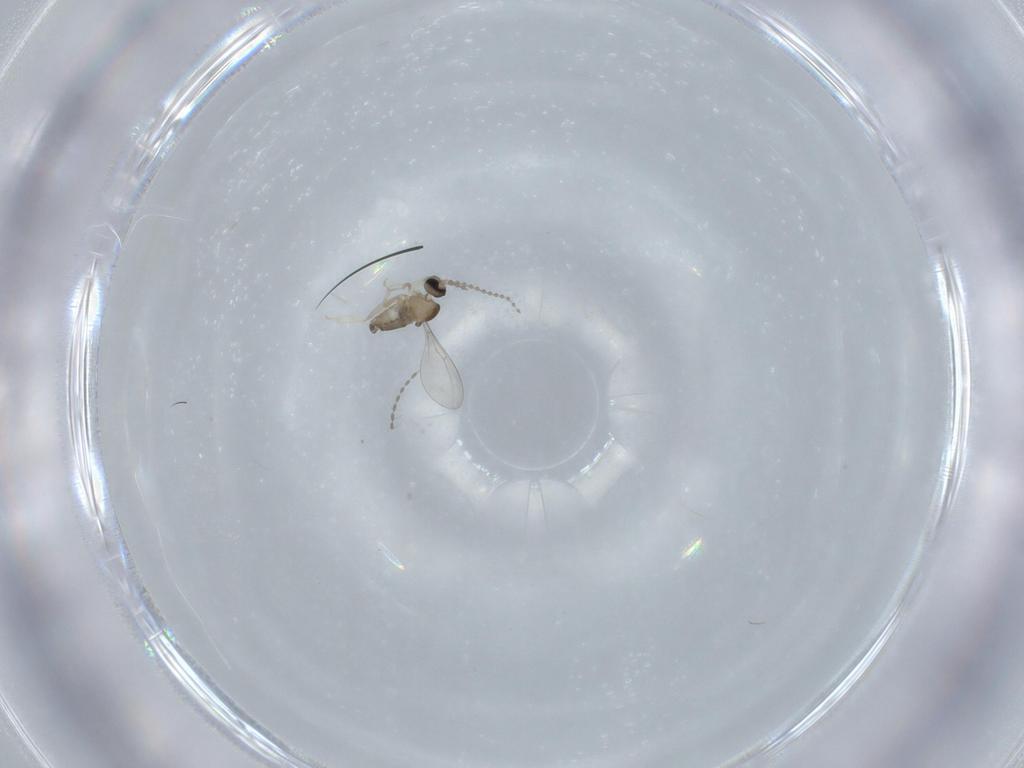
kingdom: Animalia
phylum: Arthropoda
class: Insecta
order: Diptera
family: Cecidomyiidae
